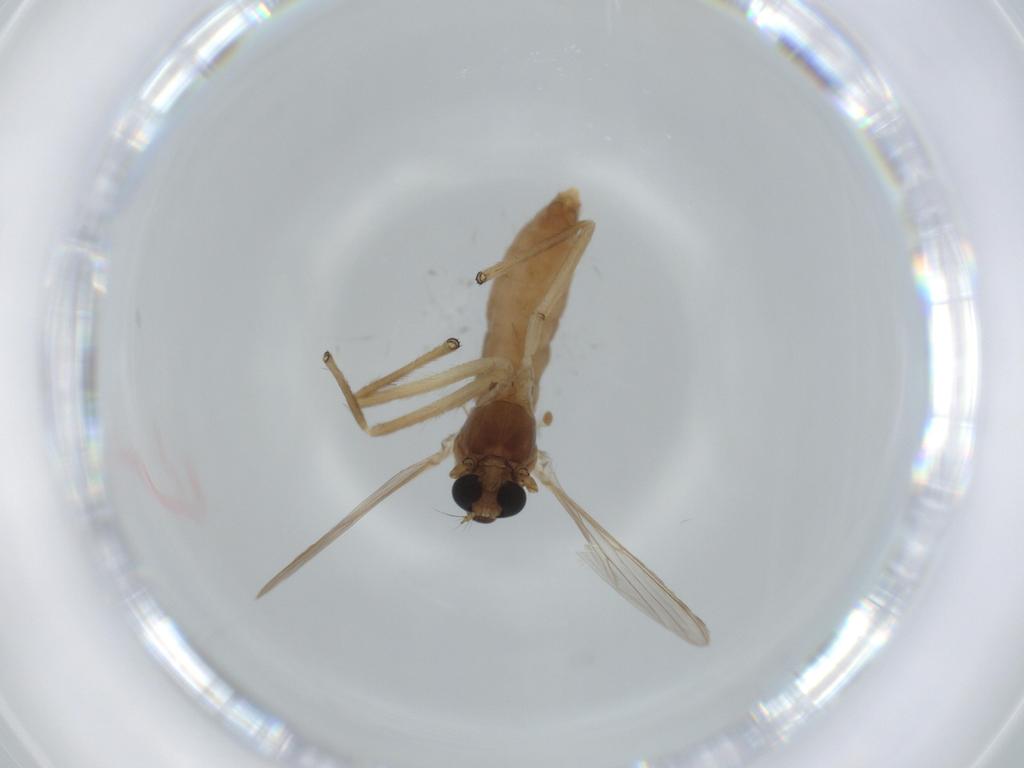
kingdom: Animalia
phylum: Arthropoda
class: Insecta
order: Diptera
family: Chironomidae
